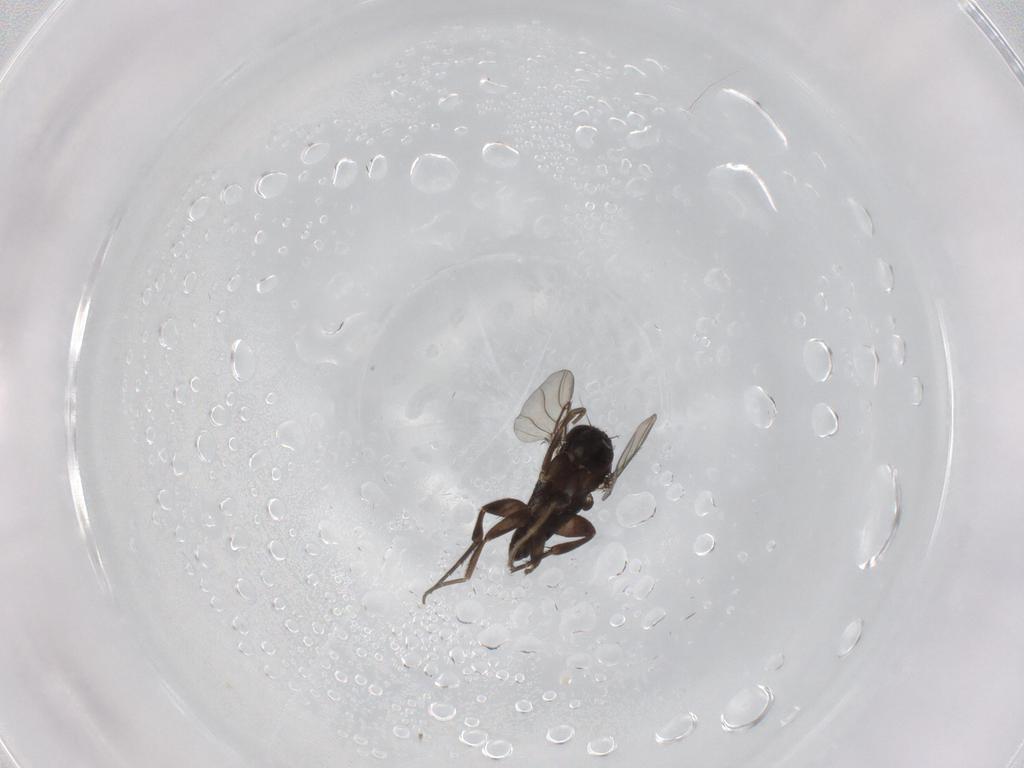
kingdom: Animalia
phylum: Arthropoda
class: Insecta
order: Diptera
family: Phoridae
